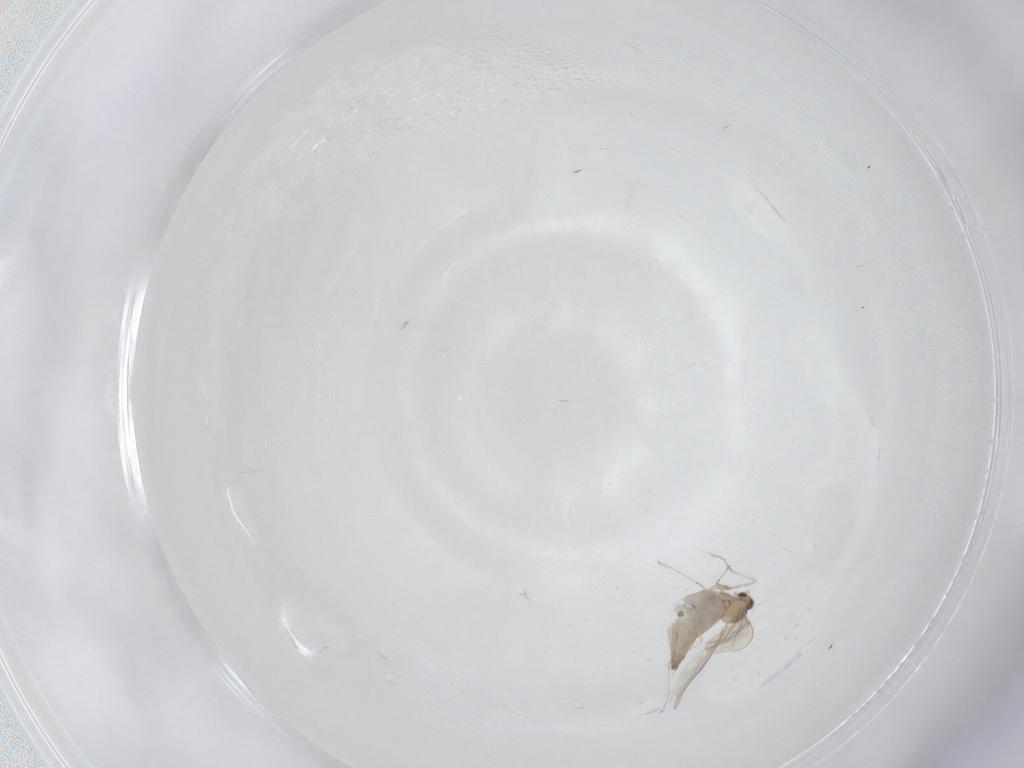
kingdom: Animalia
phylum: Arthropoda
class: Insecta
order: Diptera
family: Cecidomyiidae
